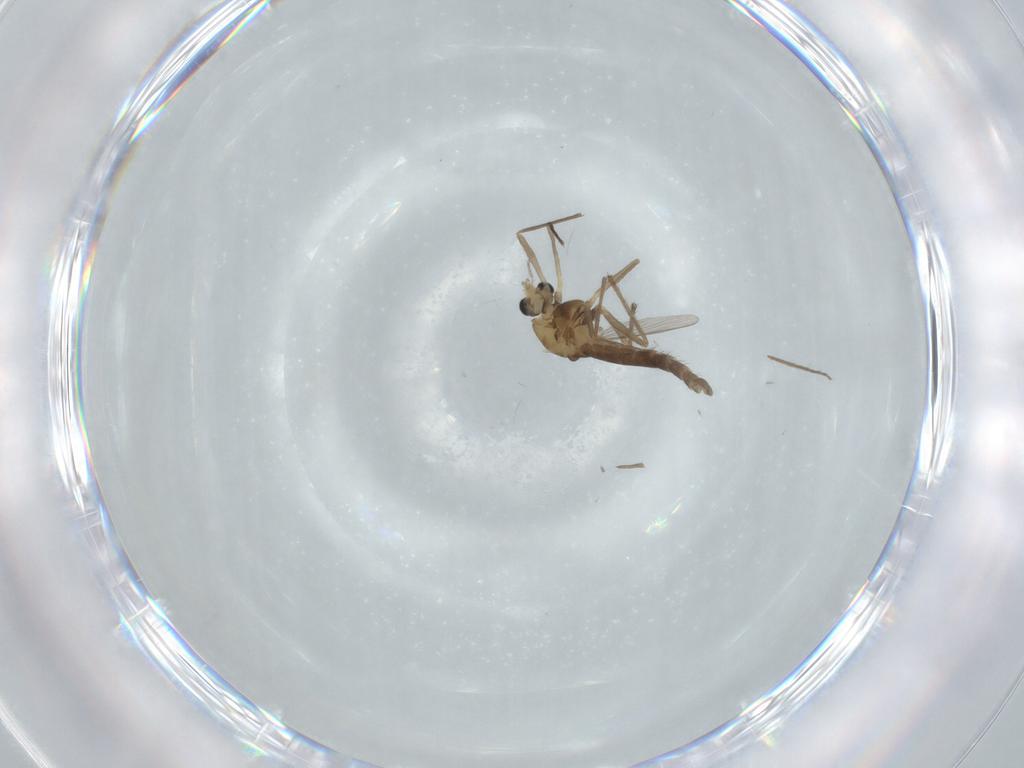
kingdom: Animalia
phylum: Arthropoda
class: Insecta
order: Diptera
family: Chironomidae
